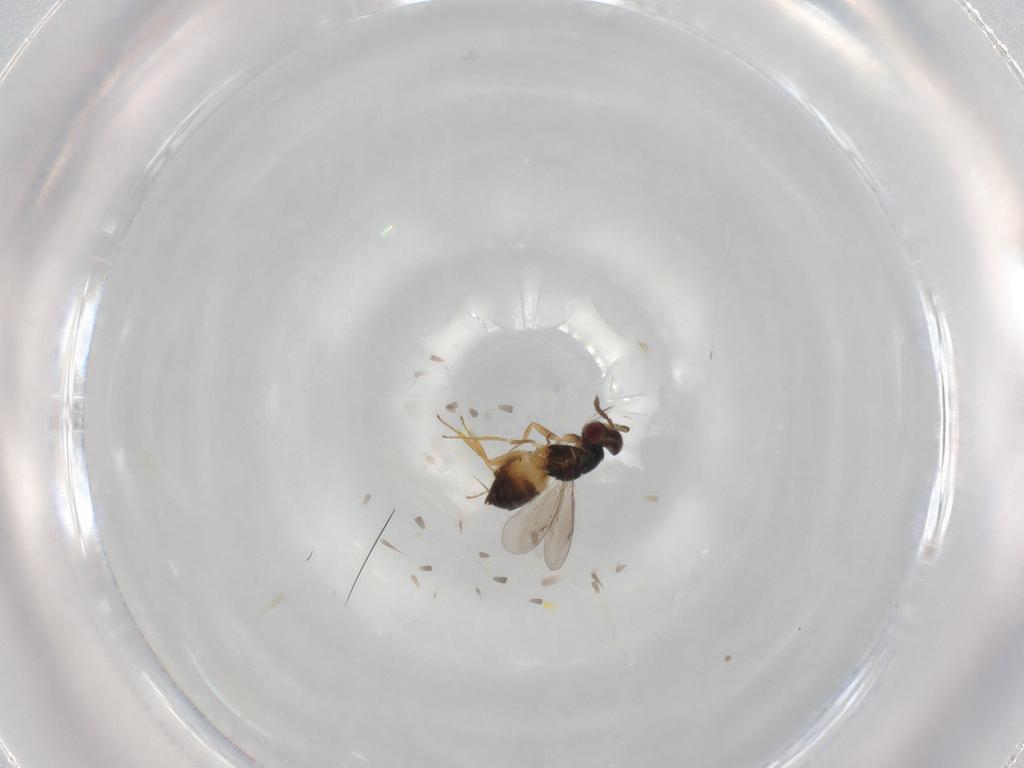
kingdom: Animalia
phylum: Arthropoda
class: Insecta
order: Hymenoptera
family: Eulophidae
